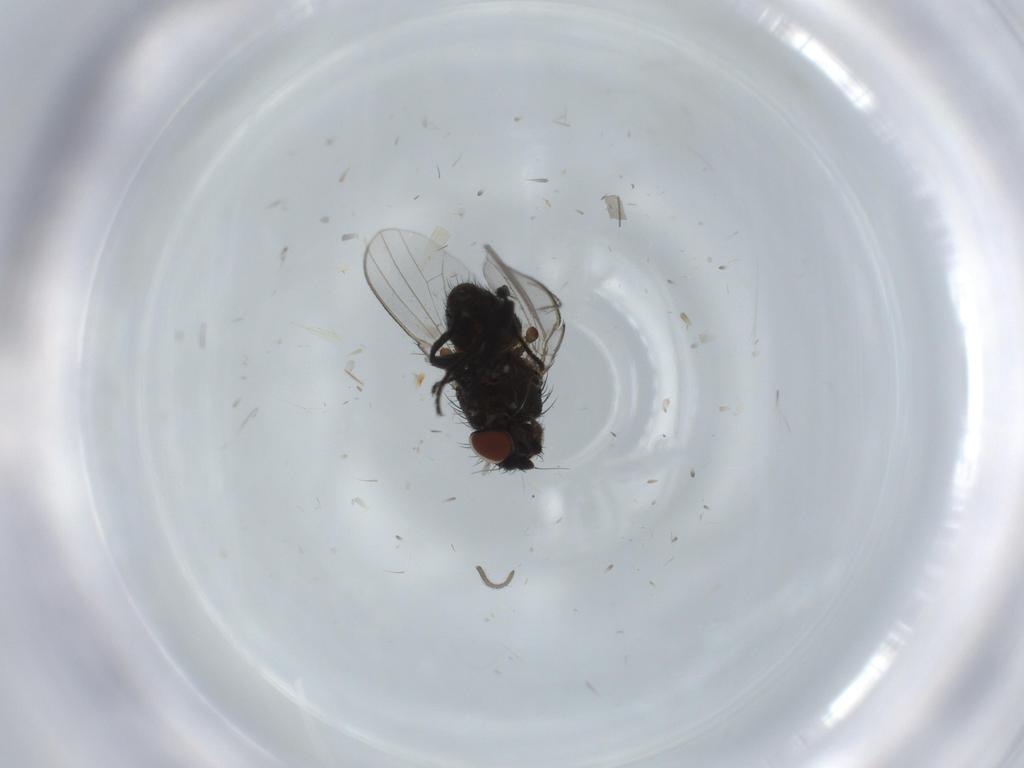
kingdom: Animalia
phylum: Arthropoda
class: Insecta
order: Diptera
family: Milichiidae
